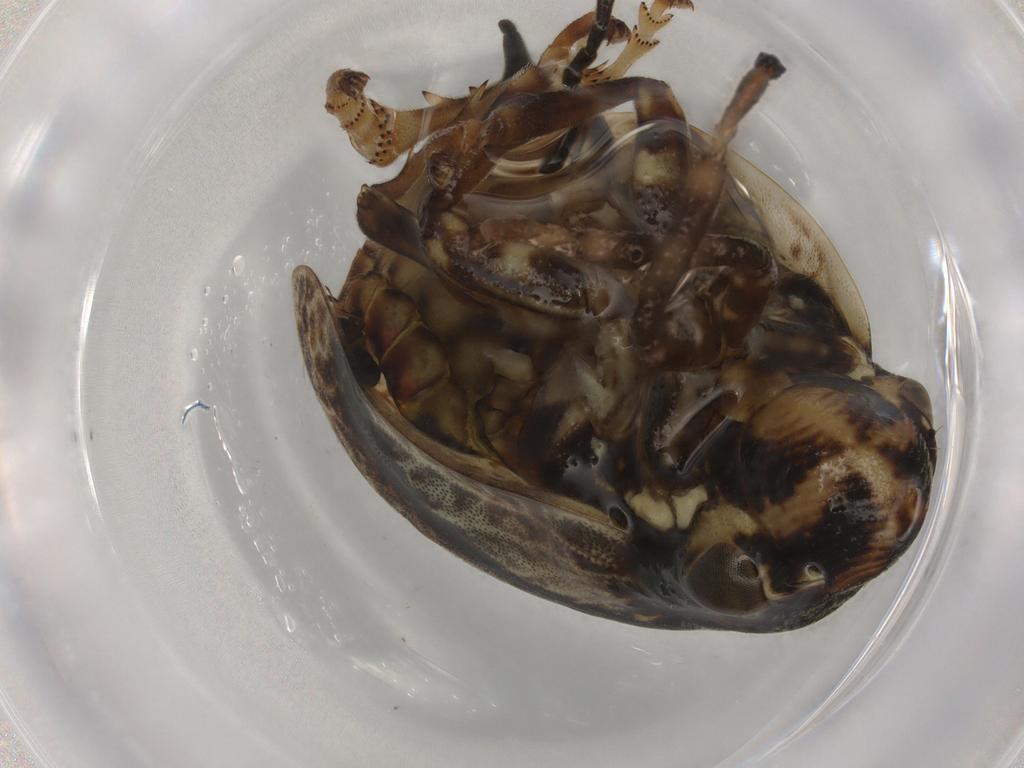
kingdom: Animalia
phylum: Arthropoda
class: Insecta
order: Hemiptera
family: Aphrophoridae
